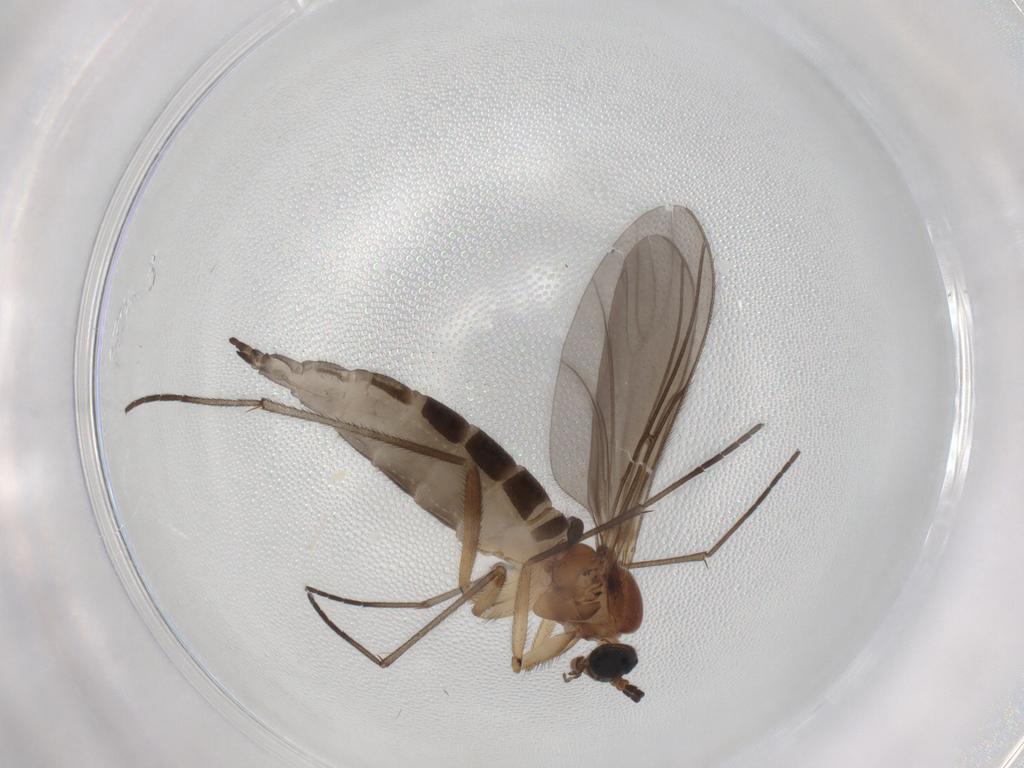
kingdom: Animalia
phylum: Arthropoda
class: Insecta
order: Diptera
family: Sciaridae
